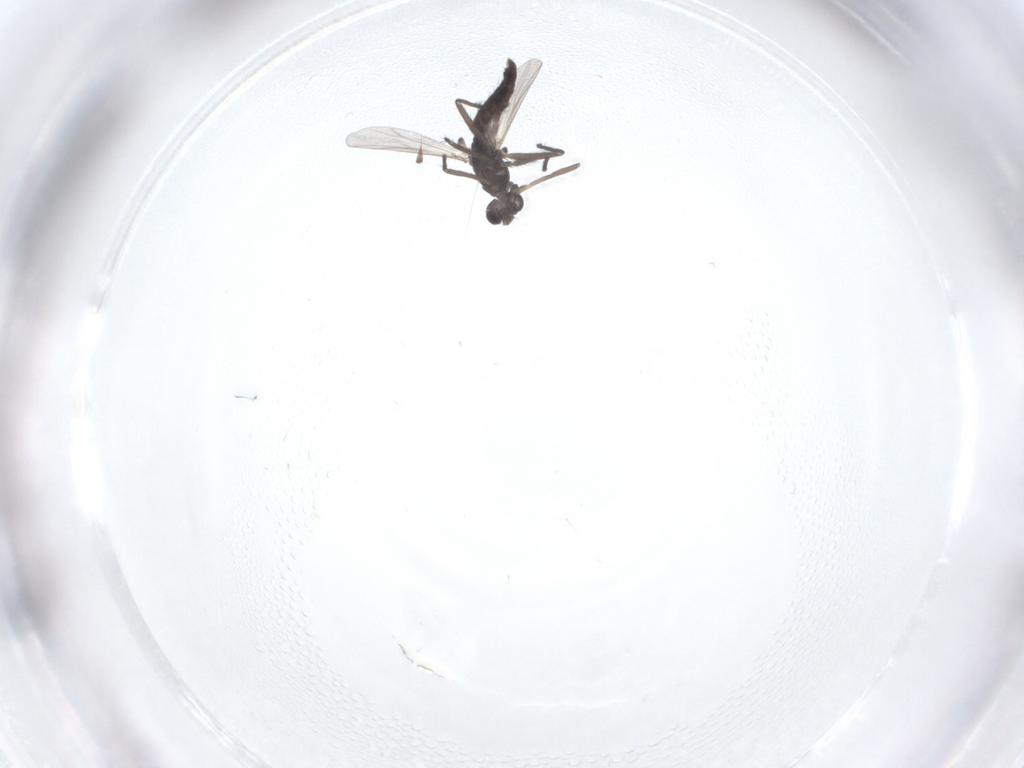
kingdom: Animalia
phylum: Arthropoda
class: Insecta
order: Diptera
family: Chironomidae
